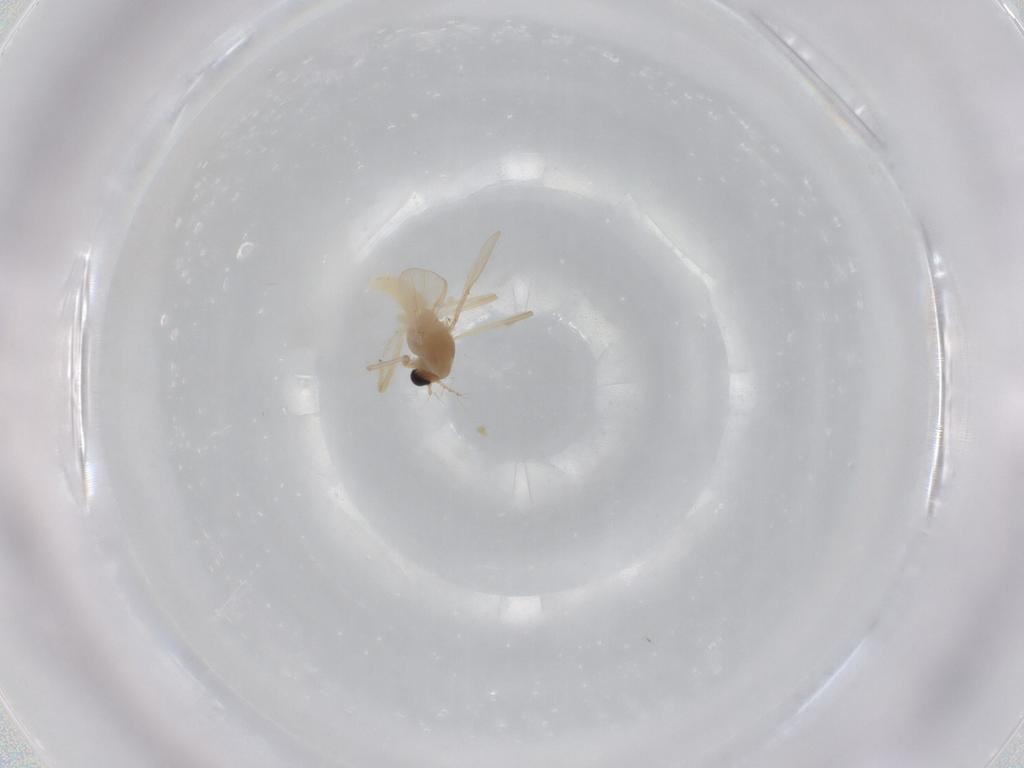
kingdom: Animalia
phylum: Arthropoda
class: Insecta
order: Diptera
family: Chironomidae
